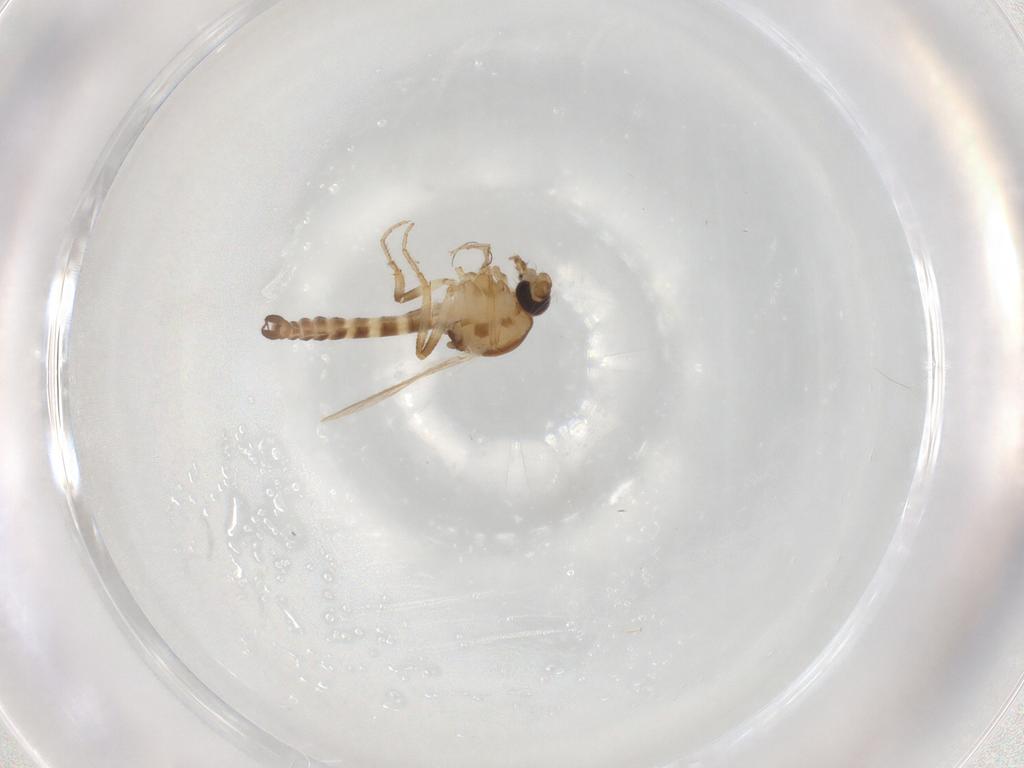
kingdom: Animalia
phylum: Arthropoda
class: Insecta
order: Diptera
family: Ceratopogonidae
